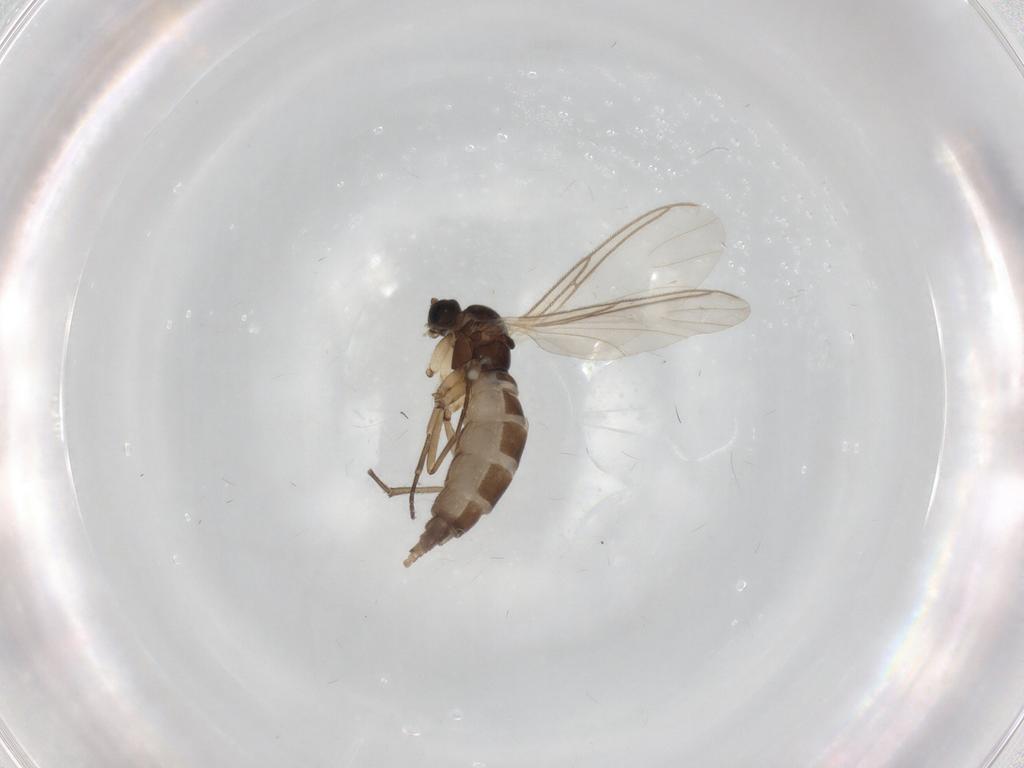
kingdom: Animalia
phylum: Arthropoda
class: Insecta
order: Diptera
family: Sciaridae
